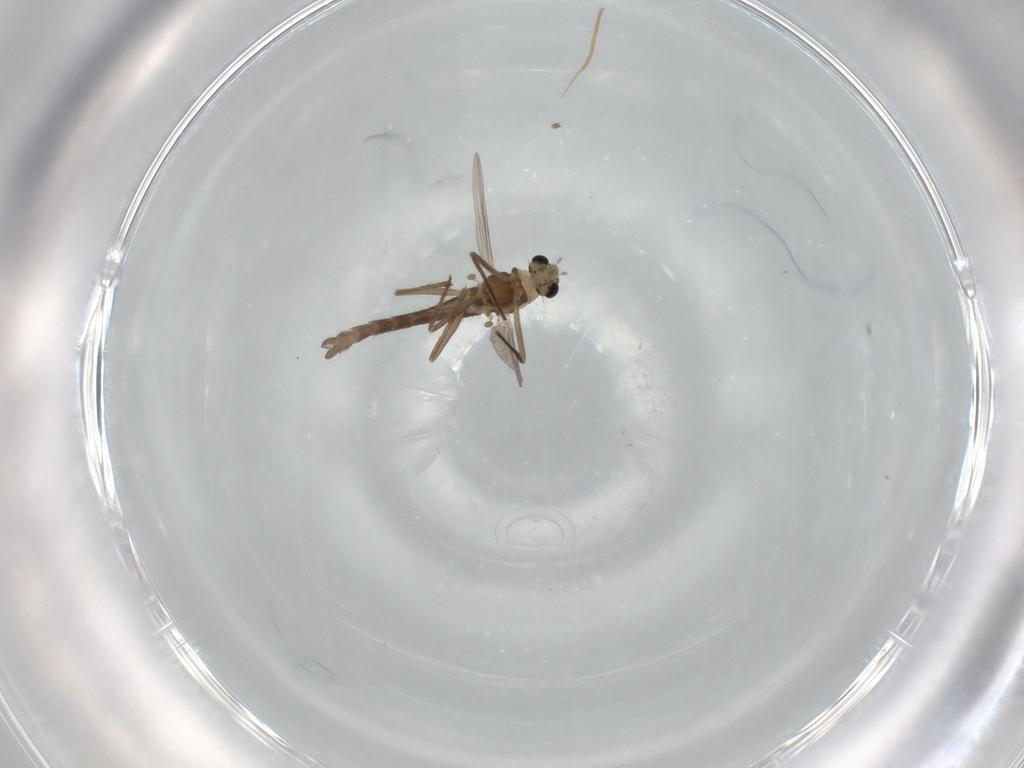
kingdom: Animalia
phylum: Arthropoda
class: Insecta
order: Diptera
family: Chironomidae
